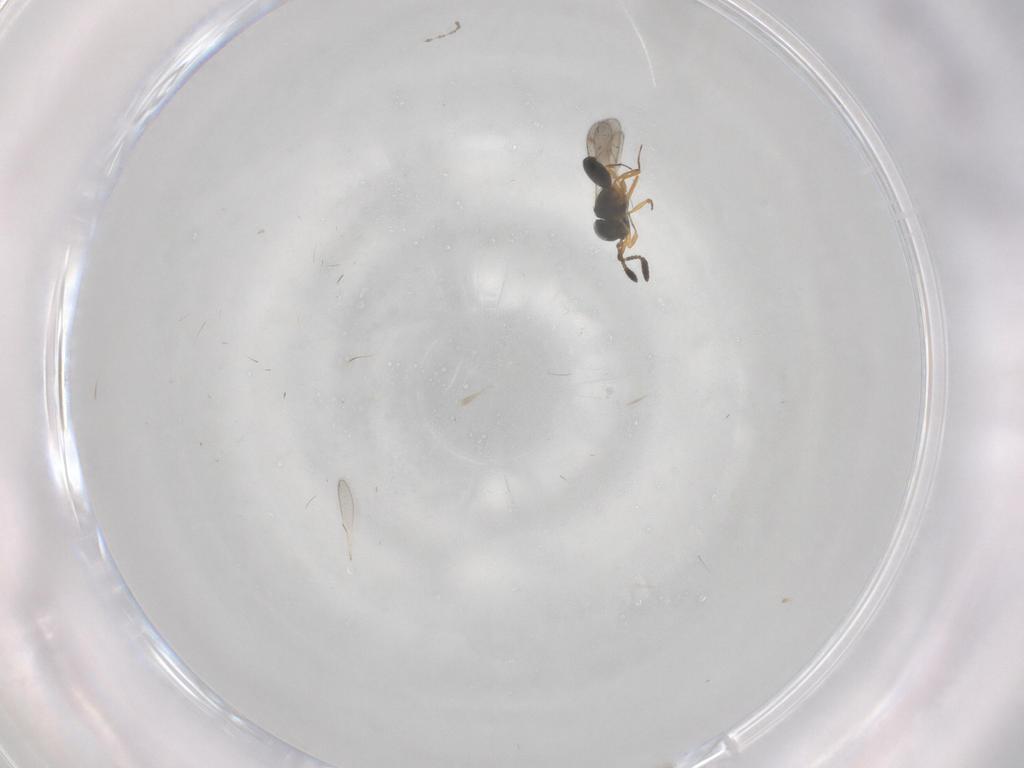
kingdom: Animalia
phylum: Arthropoda
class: Insecta
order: Hymenoptera
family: Scelionidae
